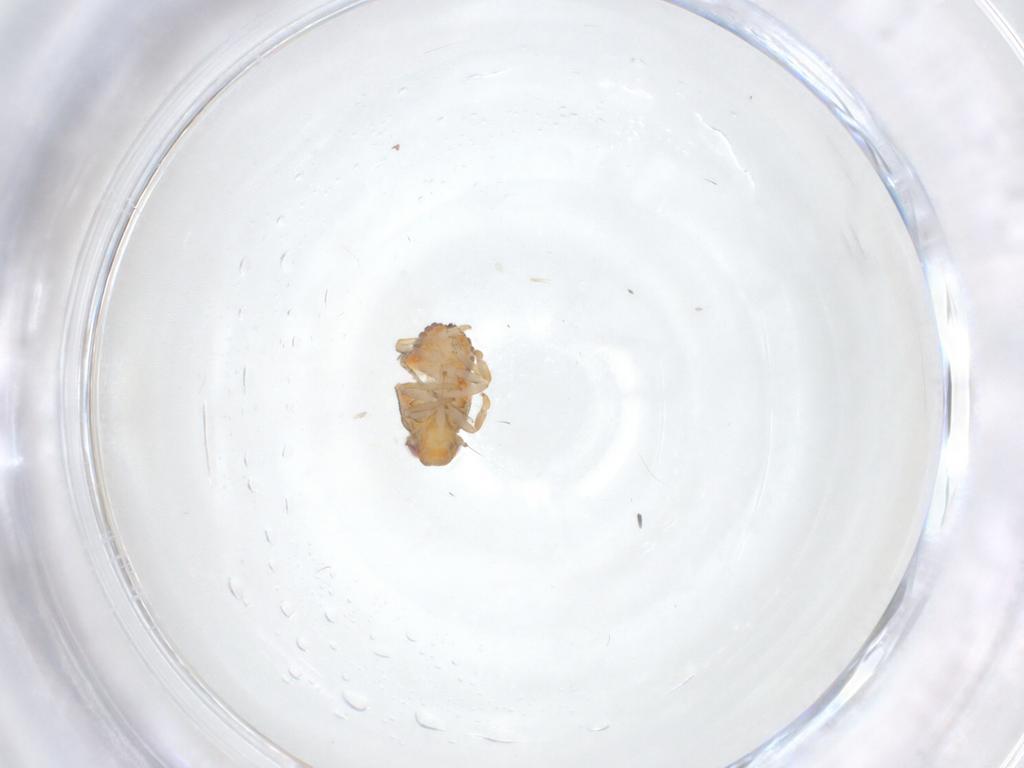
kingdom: Animalia
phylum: Arthropoda
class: Insecta
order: Hemiptera
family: Issidae
